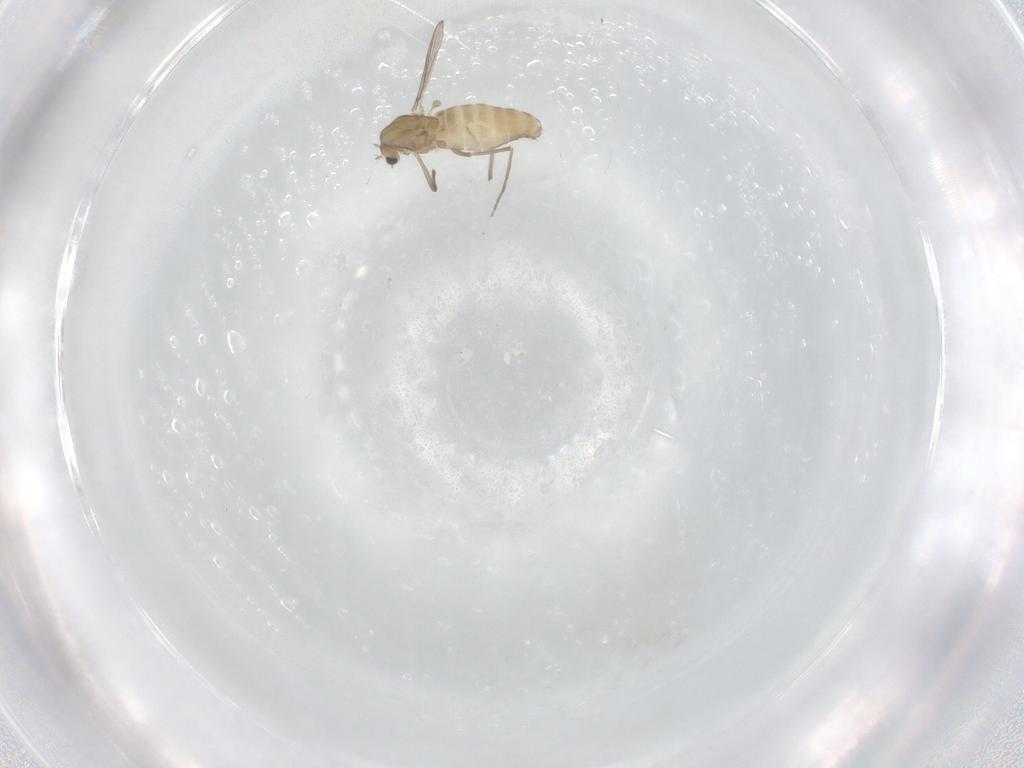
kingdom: Animalia
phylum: Arthropoda
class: Insecta
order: Diptera
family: Chironomidae
